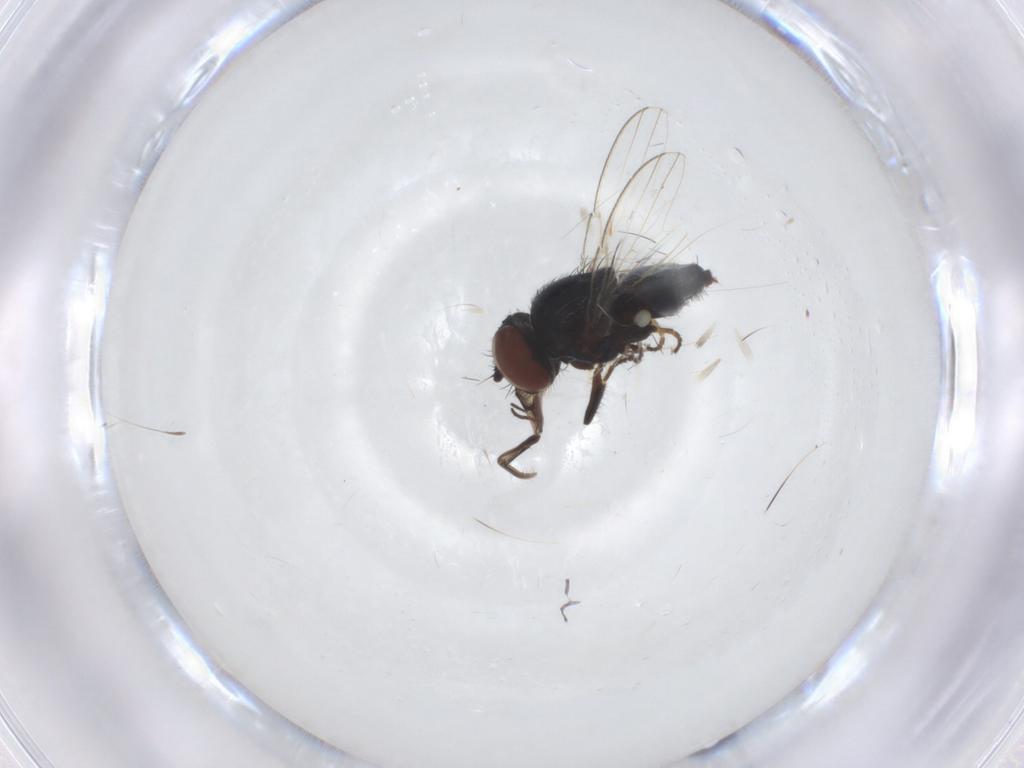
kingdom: Animalia
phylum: Arthropoda
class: Insecta
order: Diptera
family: Milichiidae
